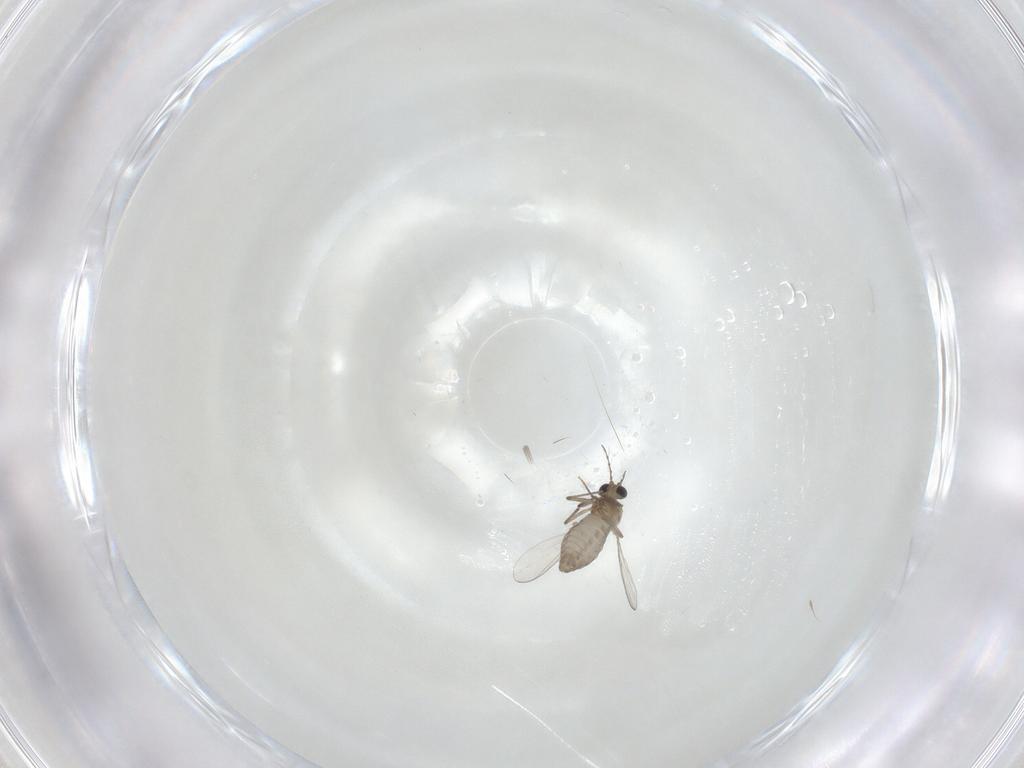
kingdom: Animalia
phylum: Arthropoda
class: Insecta
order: Diptera
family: Chironomidae
